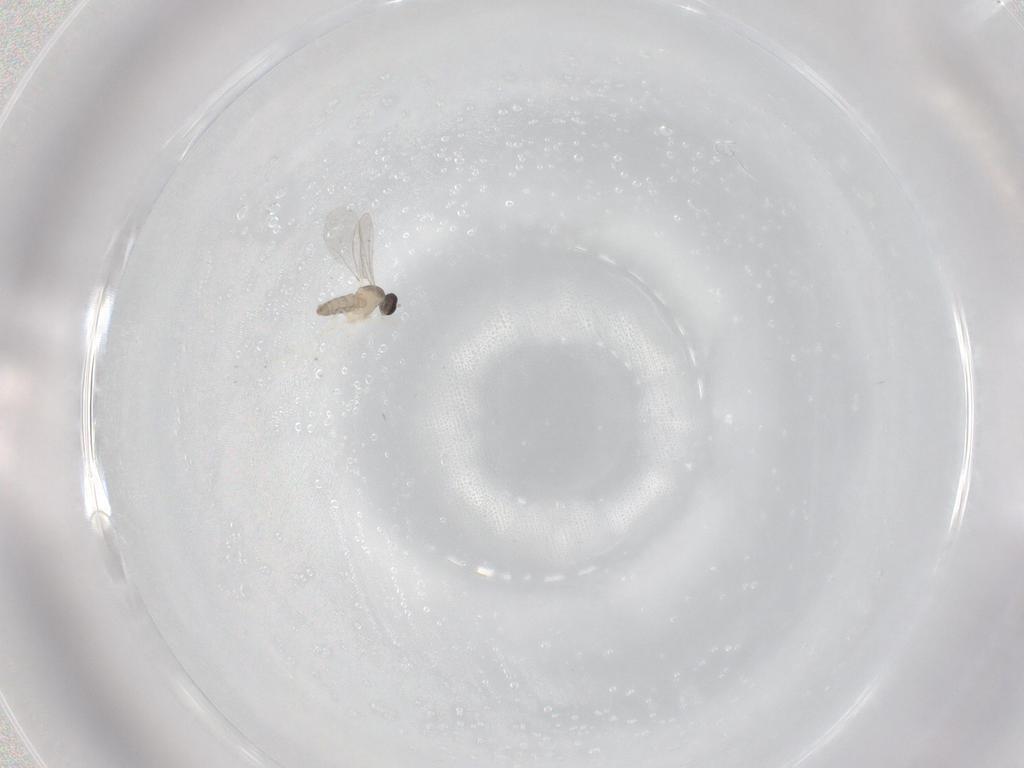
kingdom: Animalia
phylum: Arthropoda
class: Insecta
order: Diptera
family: Cecidomyiidae
